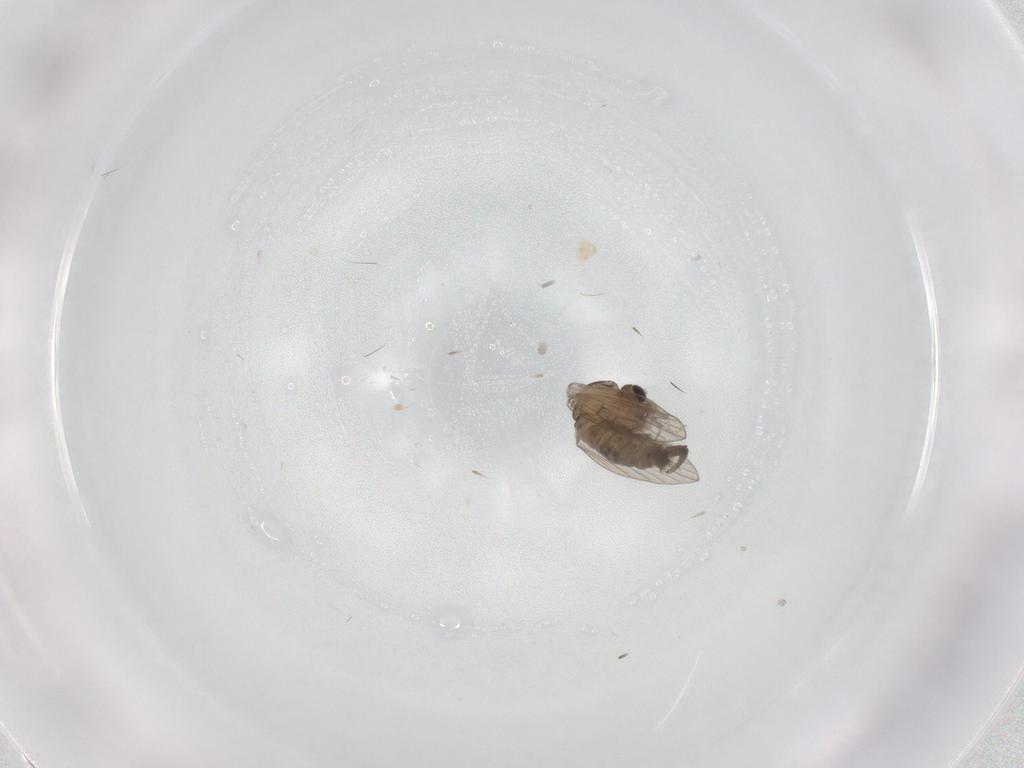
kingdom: Animalia
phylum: Arthropoda
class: Insecta
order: Diptera
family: Psychodidae
